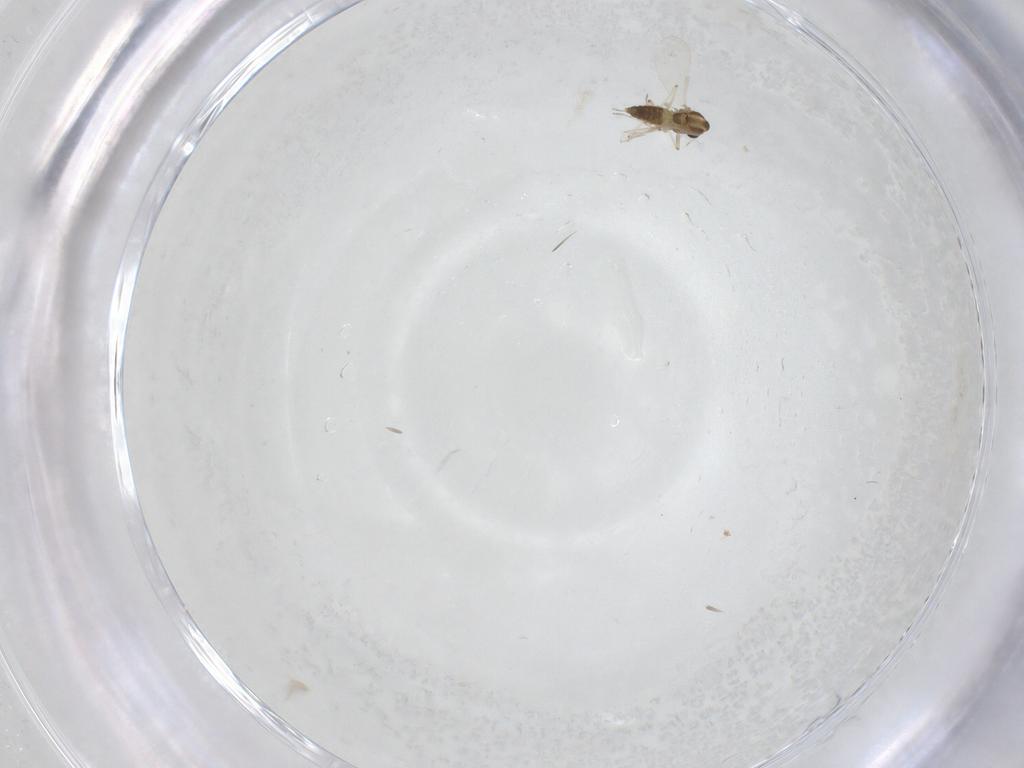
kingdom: Animalia
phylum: Arthropoda
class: Insecta
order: Diptera
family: Chironomidae
